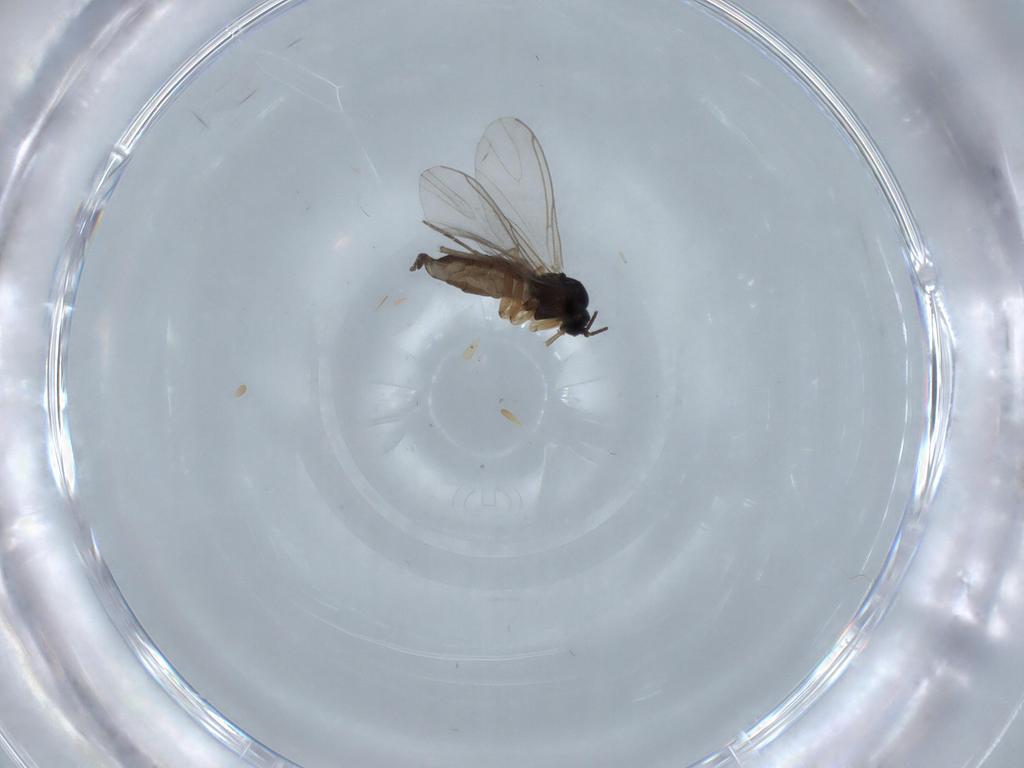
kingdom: Animalia
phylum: Arthropoda
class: Insecta
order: Diptera
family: Sciaridae
